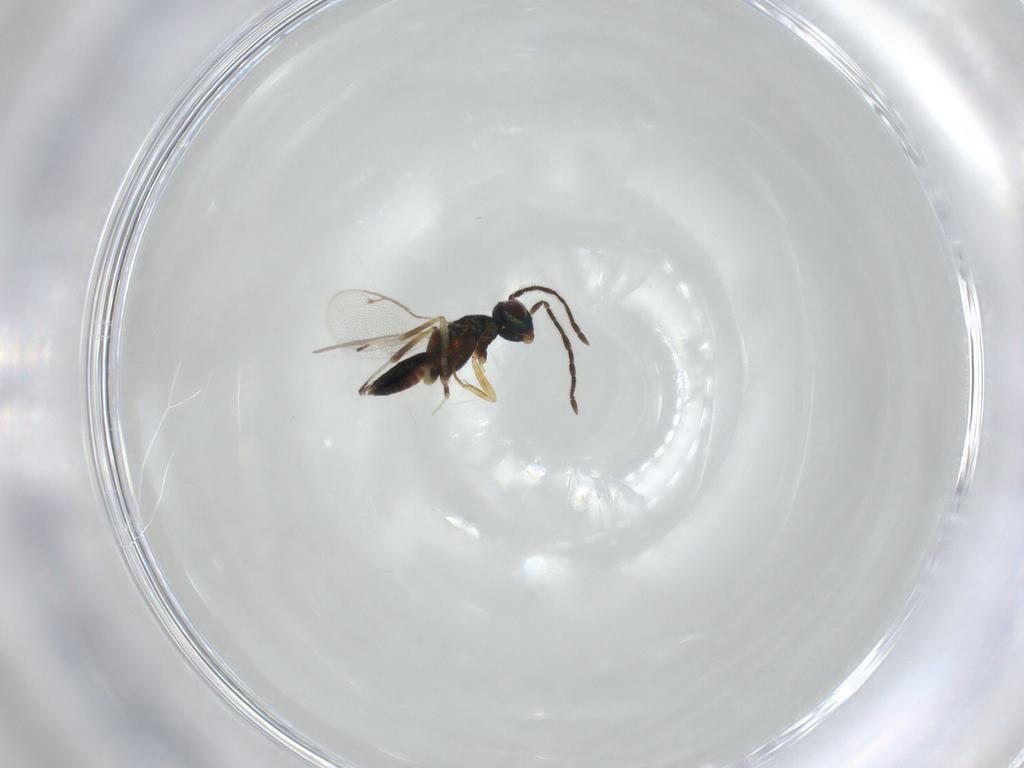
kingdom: Animalia
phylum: Arthropoda
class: Insecta
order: Hymenoptera
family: Eupelmidae
